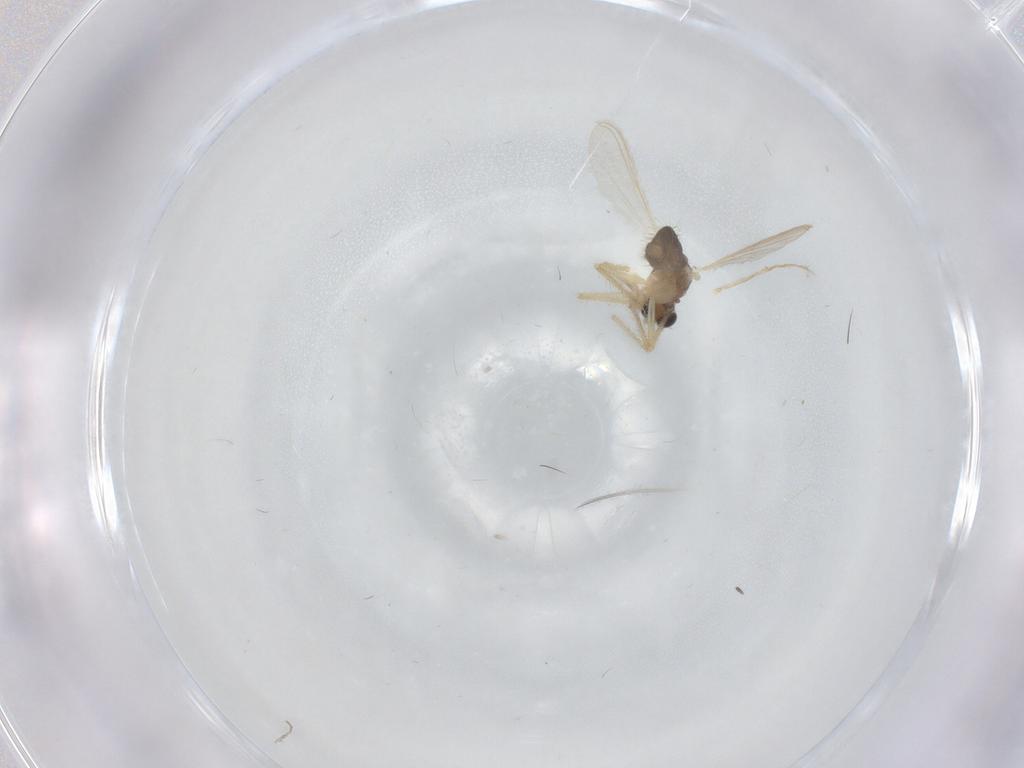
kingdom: Animalia
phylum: Arthropoda
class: Insecta
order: Diptera
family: Chironomidae
